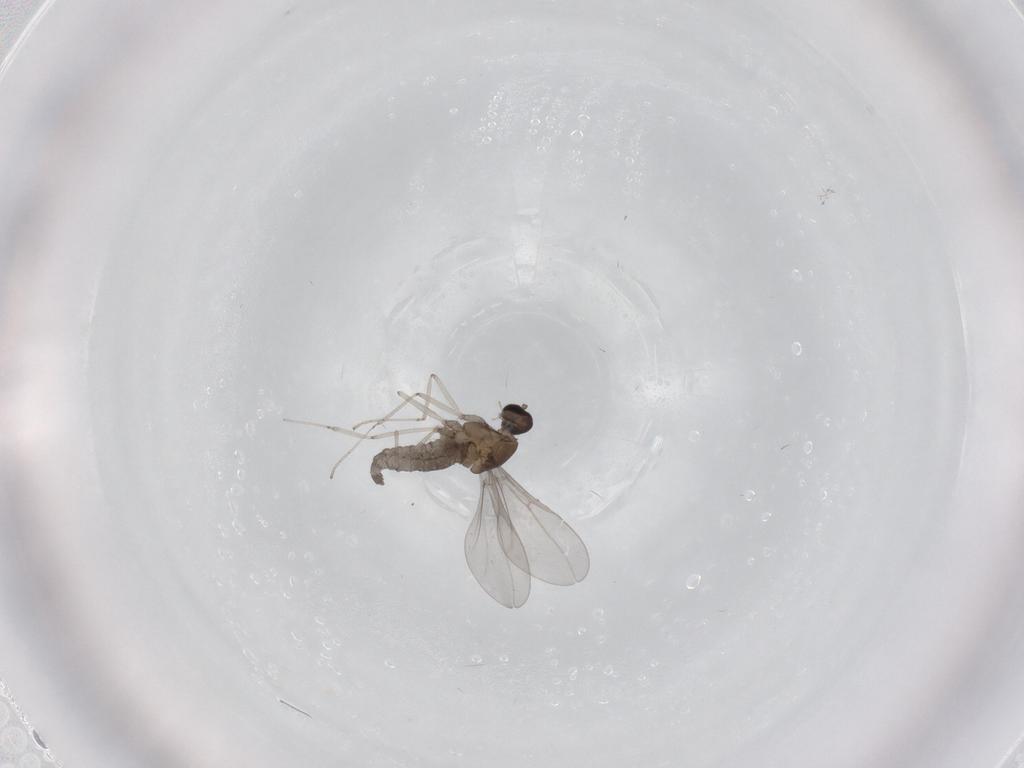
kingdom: Animalia
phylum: Arthropoda
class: Insecta
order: Diptera
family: Cecidomyiidae
